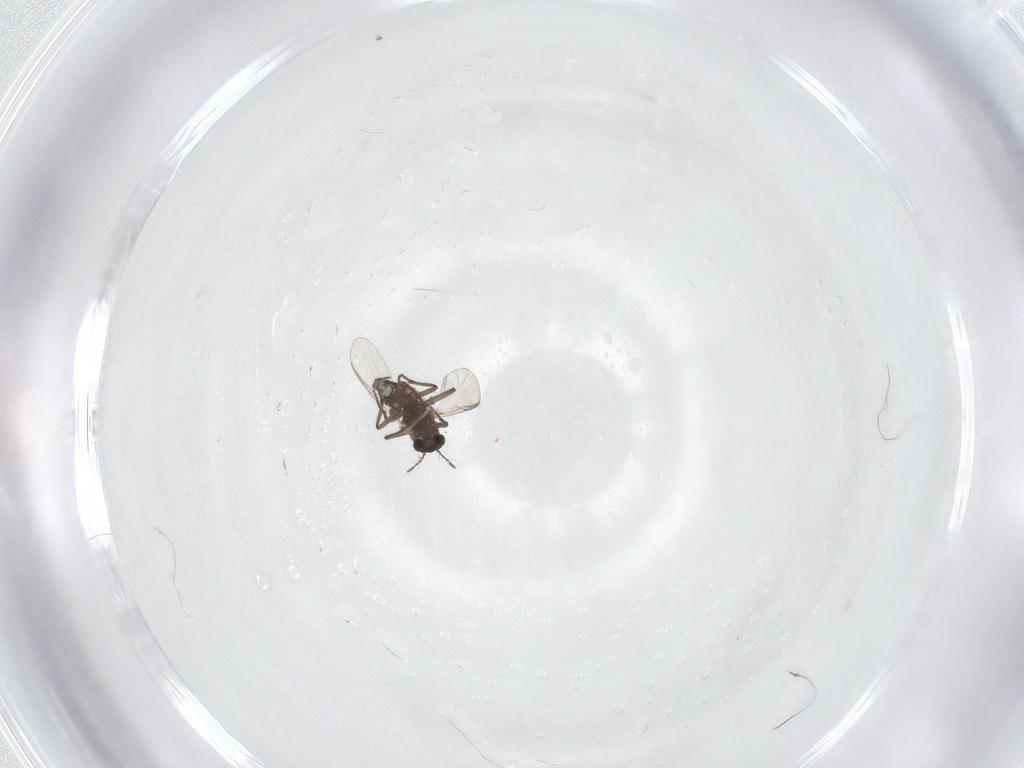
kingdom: Animalia
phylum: Arthropoda
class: Insecta
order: Diptera
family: Chironomidae
